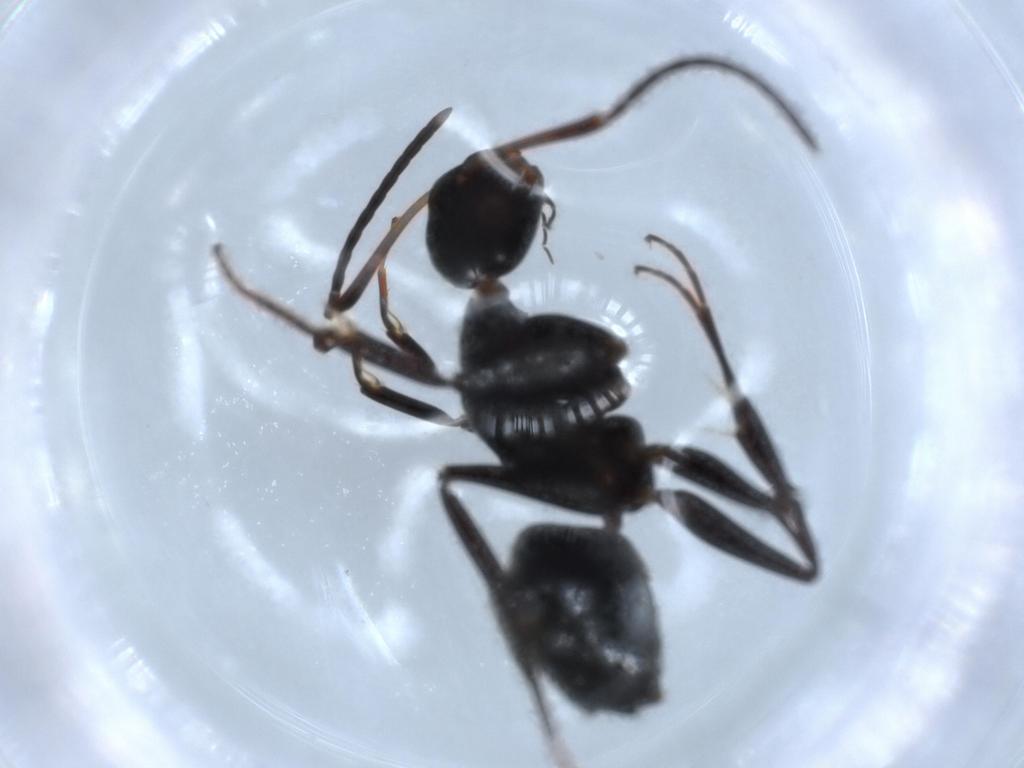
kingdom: Animalia
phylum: Arthropoda
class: Insecta
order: Hymenoptera
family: Formicidae
